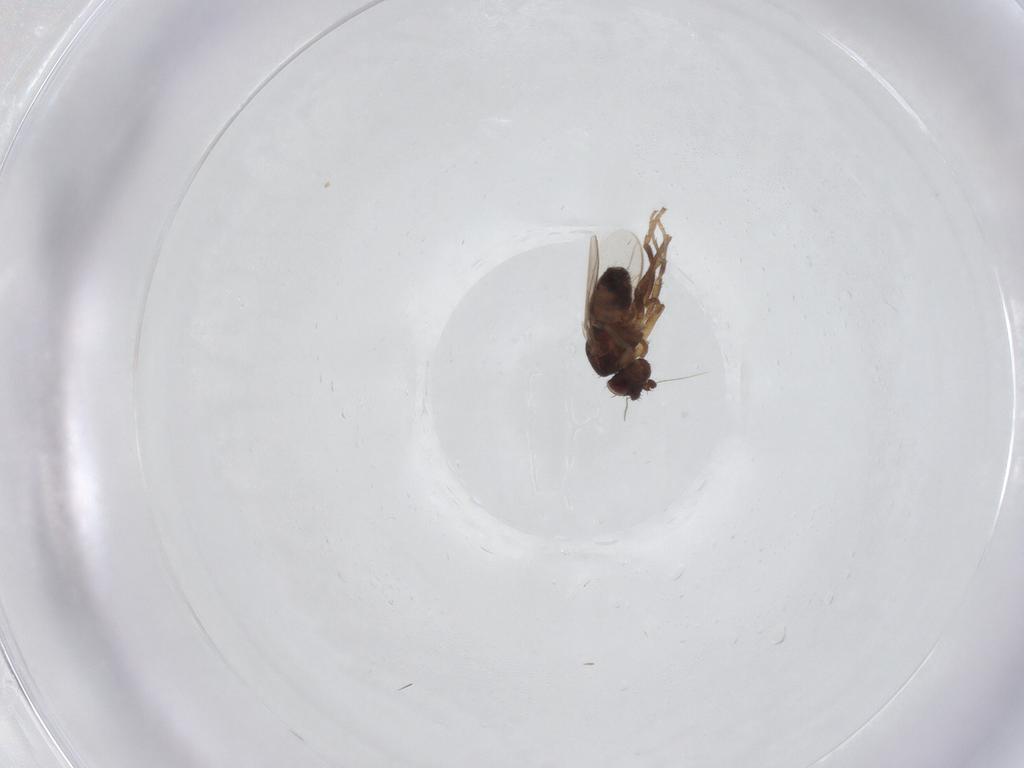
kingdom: Animalia
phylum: Arthropoda
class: Insecta
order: Diptera
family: Sphaeroceridae
